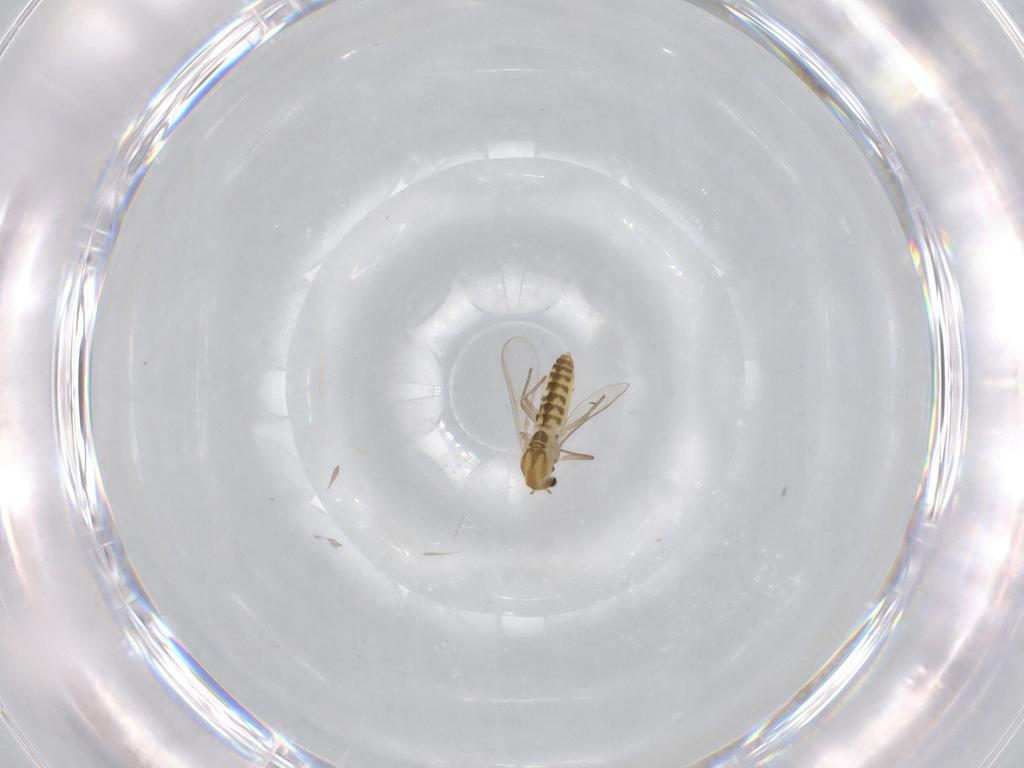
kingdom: Animalia
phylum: Arthropoda
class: Insecta
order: Diptera
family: Chironomidae
